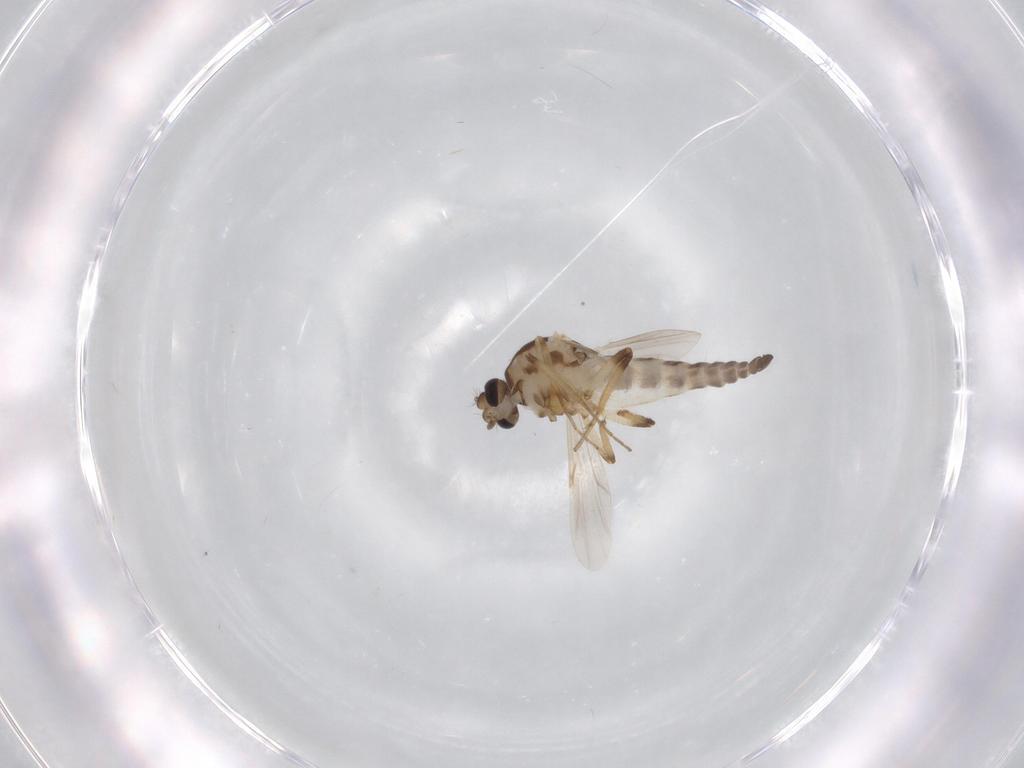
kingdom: Animalia
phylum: Arthropoda
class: Insecta
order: Diptera
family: Ceratopogonidae
